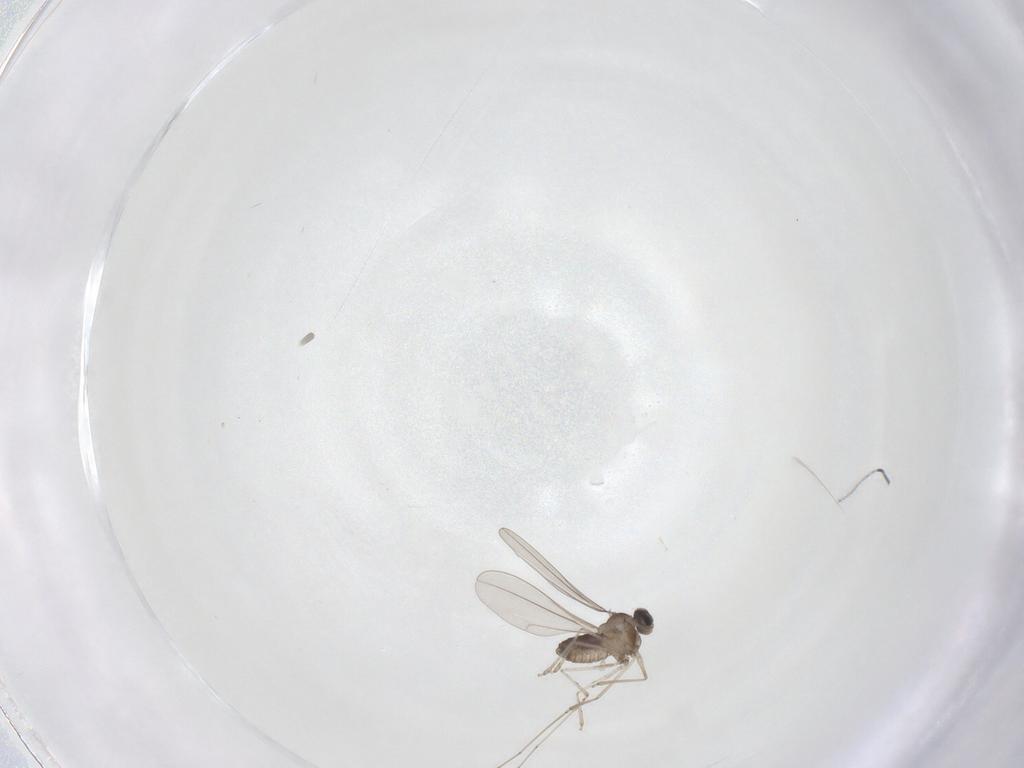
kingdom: Animalia
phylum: Arthropoda
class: Insecta
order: Diptera
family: Cecidomyiidae
